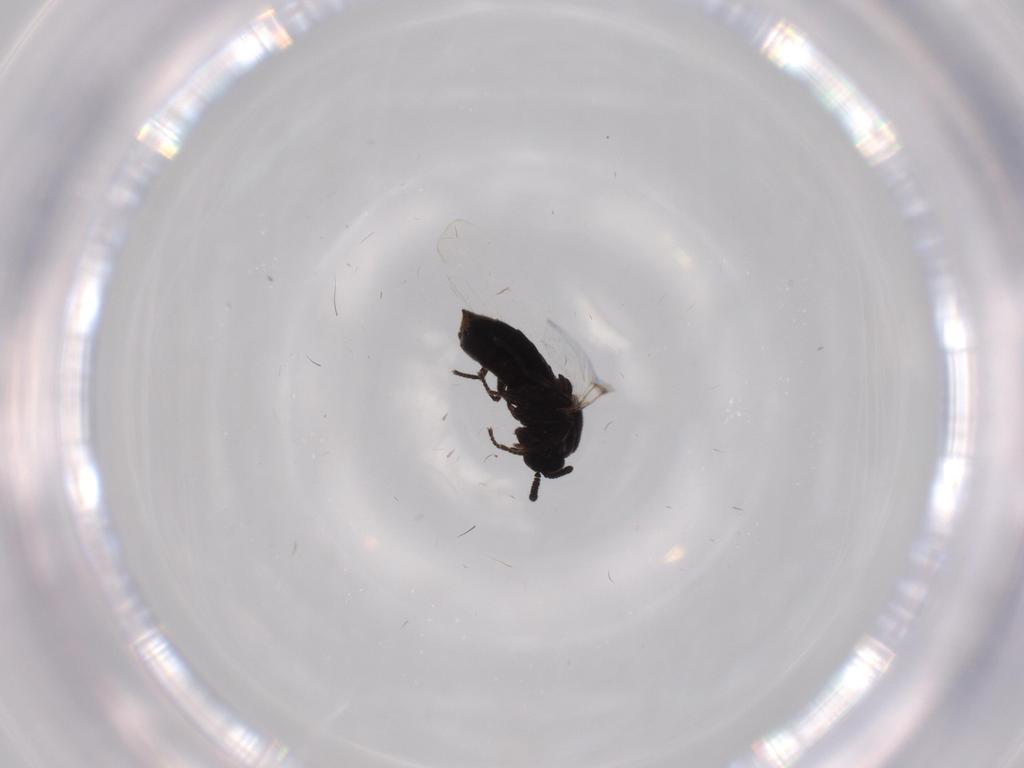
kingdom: Animalia
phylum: Arthropoda
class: Insecta
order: Diptera
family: Scatopsidae
